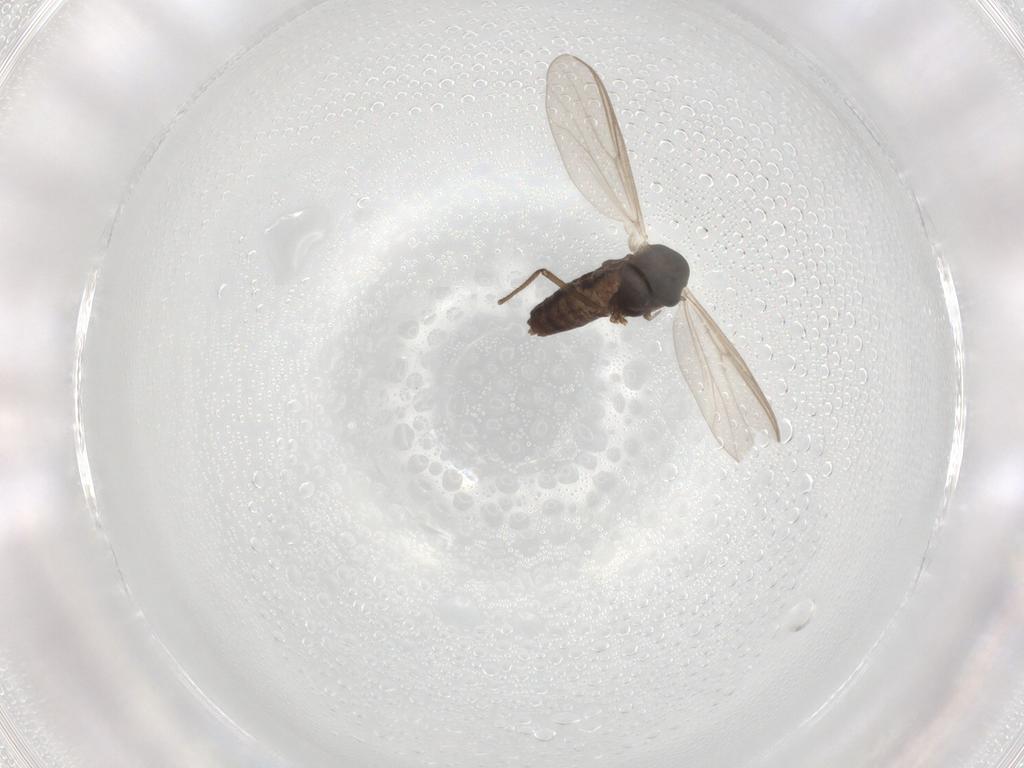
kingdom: Animalia
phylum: Arthropoda
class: Insecta
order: Diptera
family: Chironomidae
